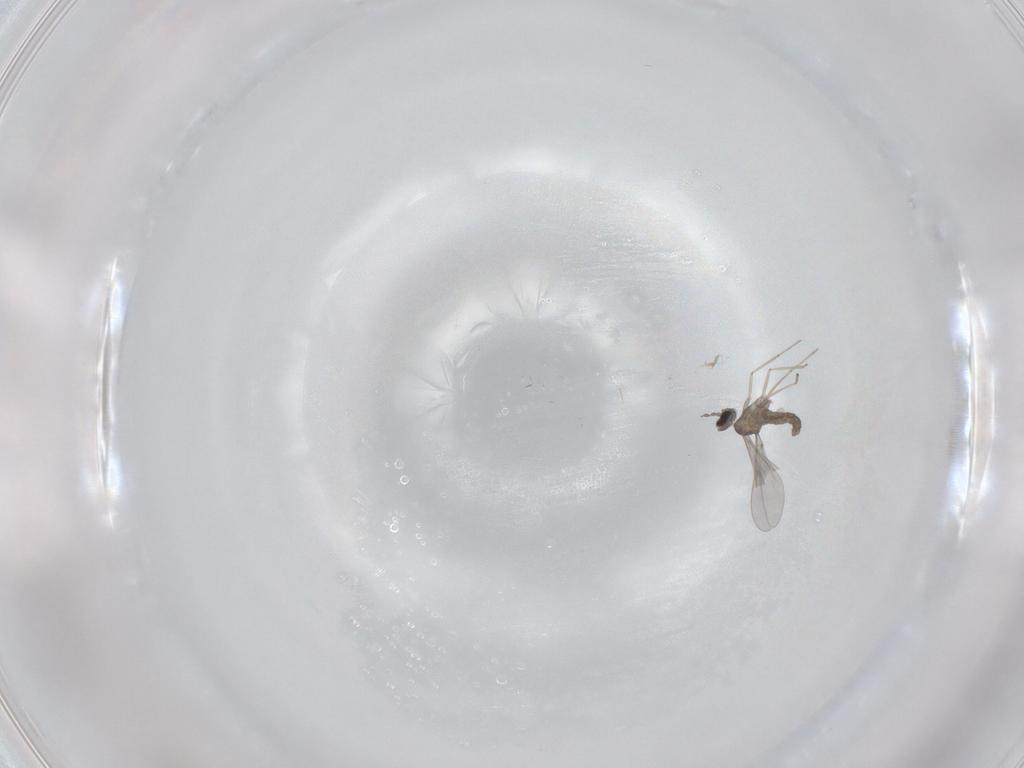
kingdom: Animalia
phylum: Arthropoda
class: Insecta
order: Diptera
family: Cecidomyiidae
